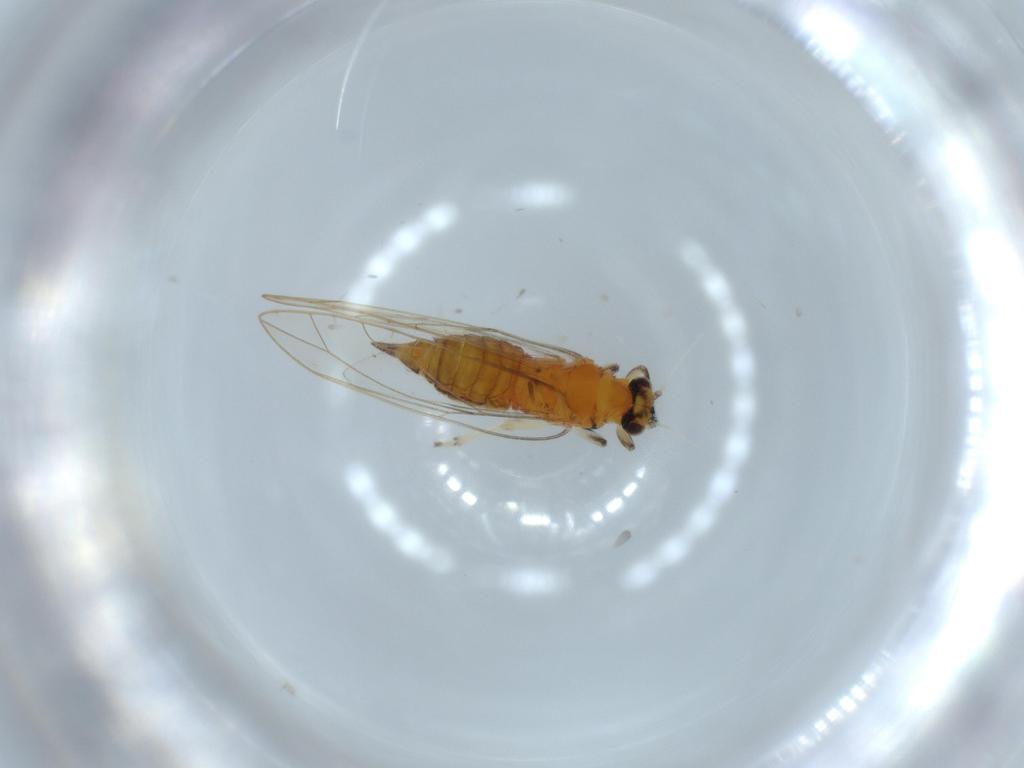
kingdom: Animalia
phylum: Arthropoda
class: Insecta
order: Hemiptera
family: Triozidae
